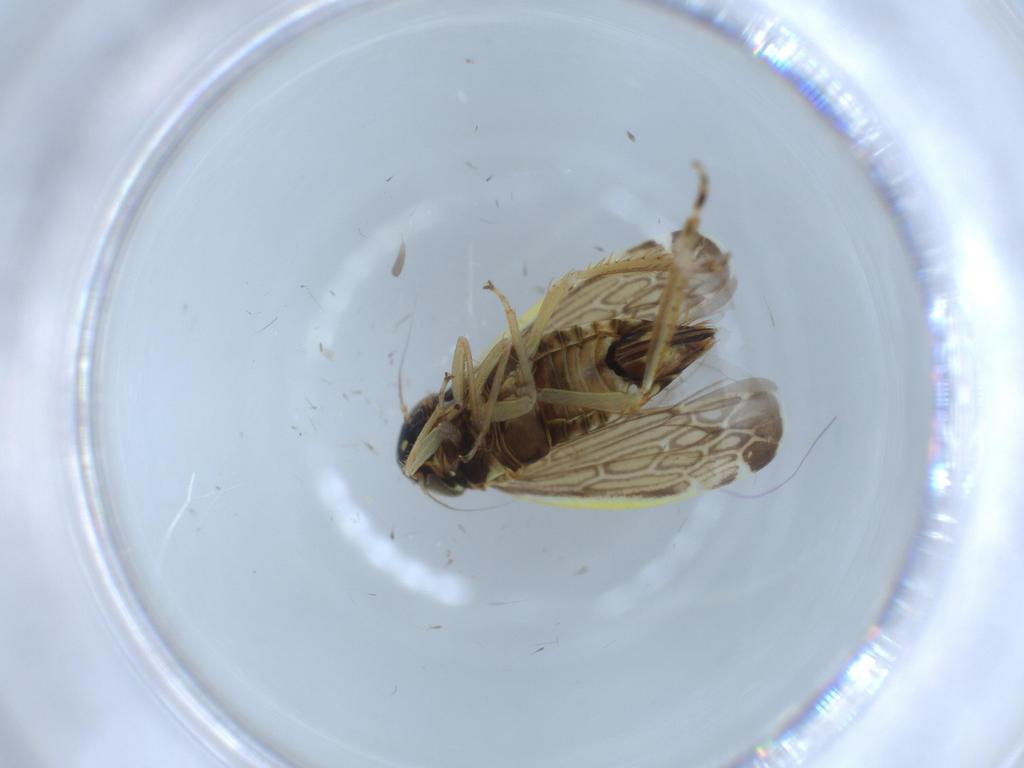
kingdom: Animalia
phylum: Arthropoda
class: Insecta
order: Hemiptera
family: Cicadellidae
